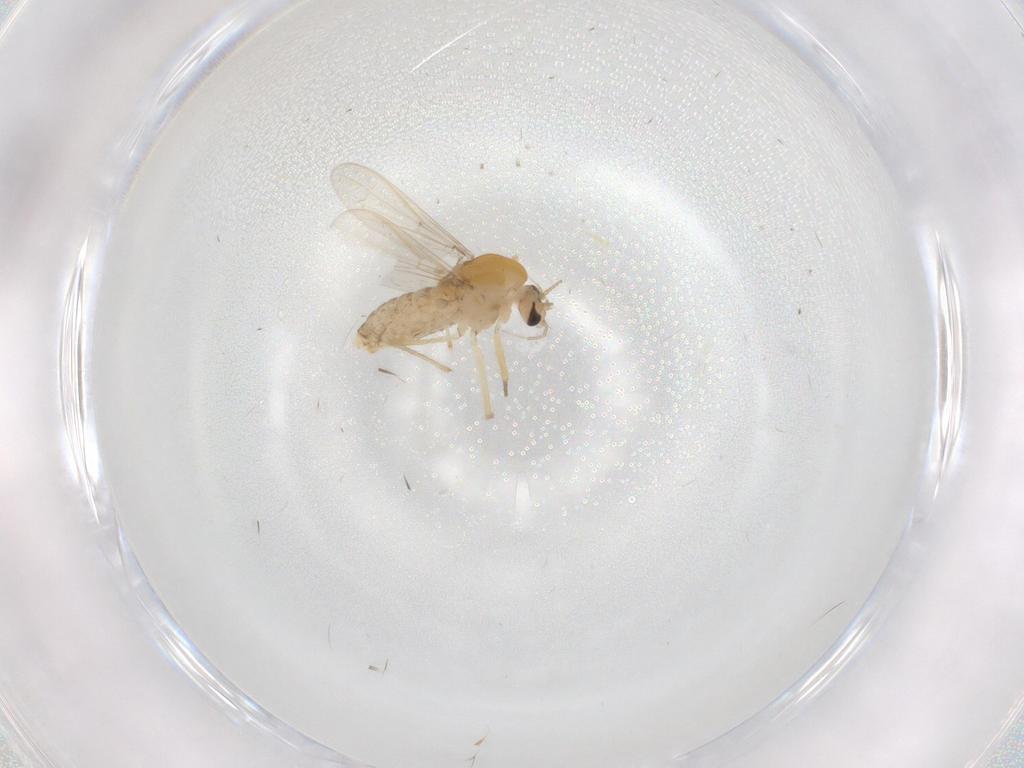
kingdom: Animalia
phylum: Arthropoda
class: Insecta
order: Diptera
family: Chironomidae
